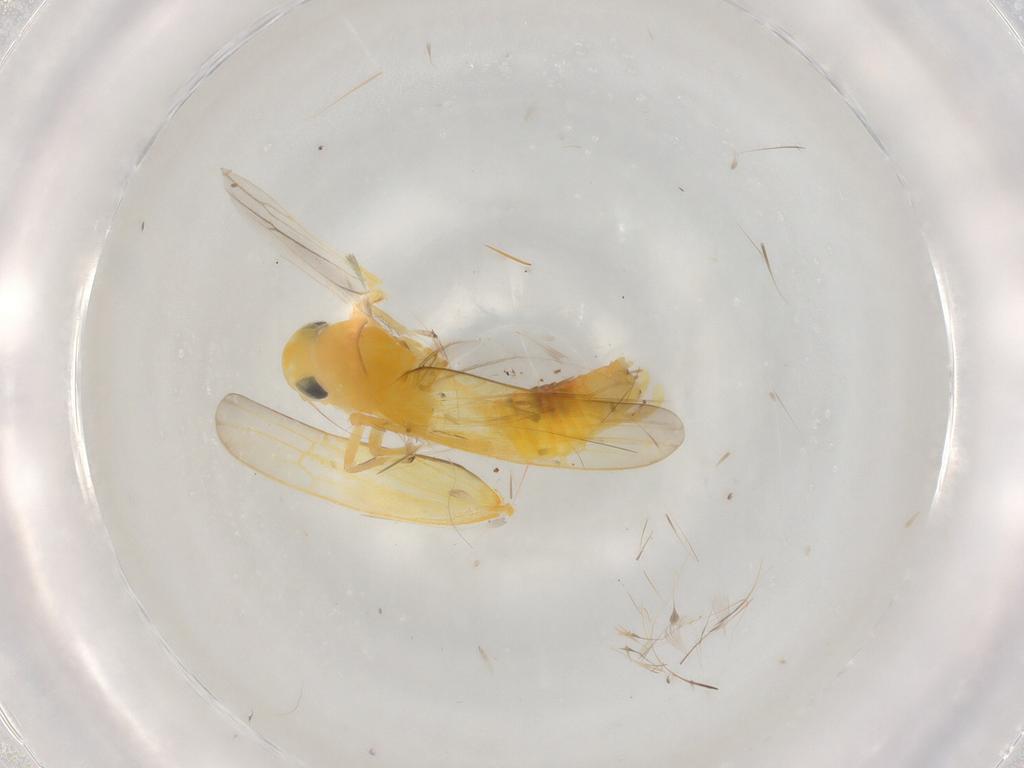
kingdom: Animalia
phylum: Arthropoda
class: Insecta
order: Hemiptera
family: Cicadellidae
